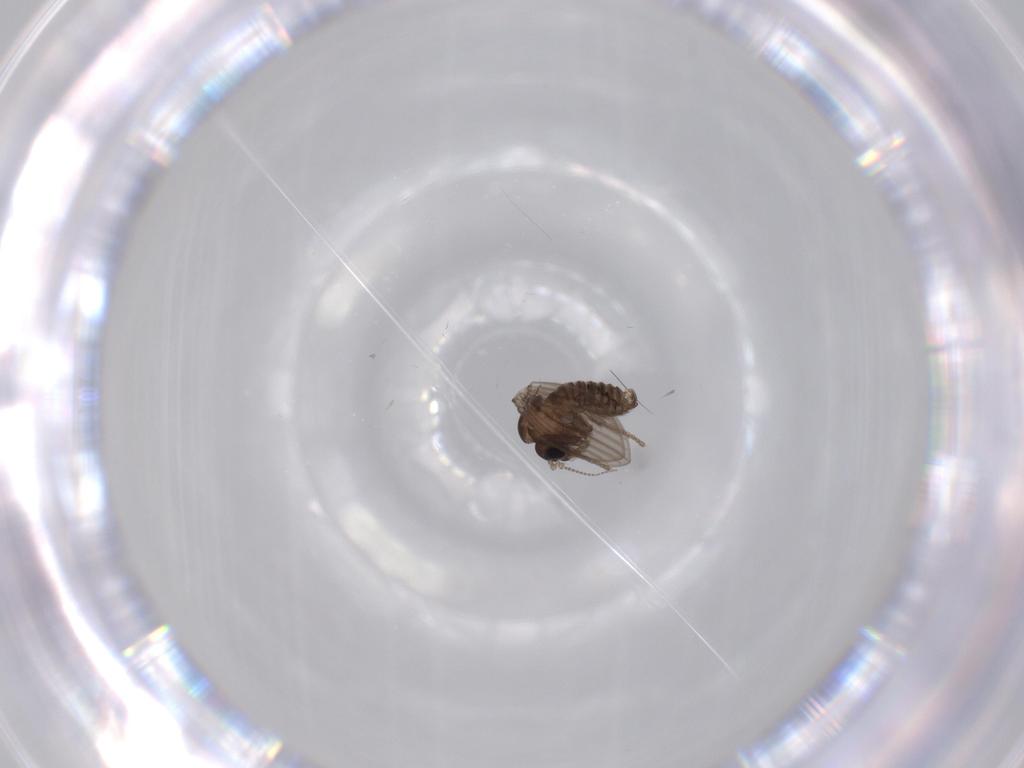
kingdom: Animalia
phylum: Arthropoda
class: Insecta
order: Diptera
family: Psychodidae
